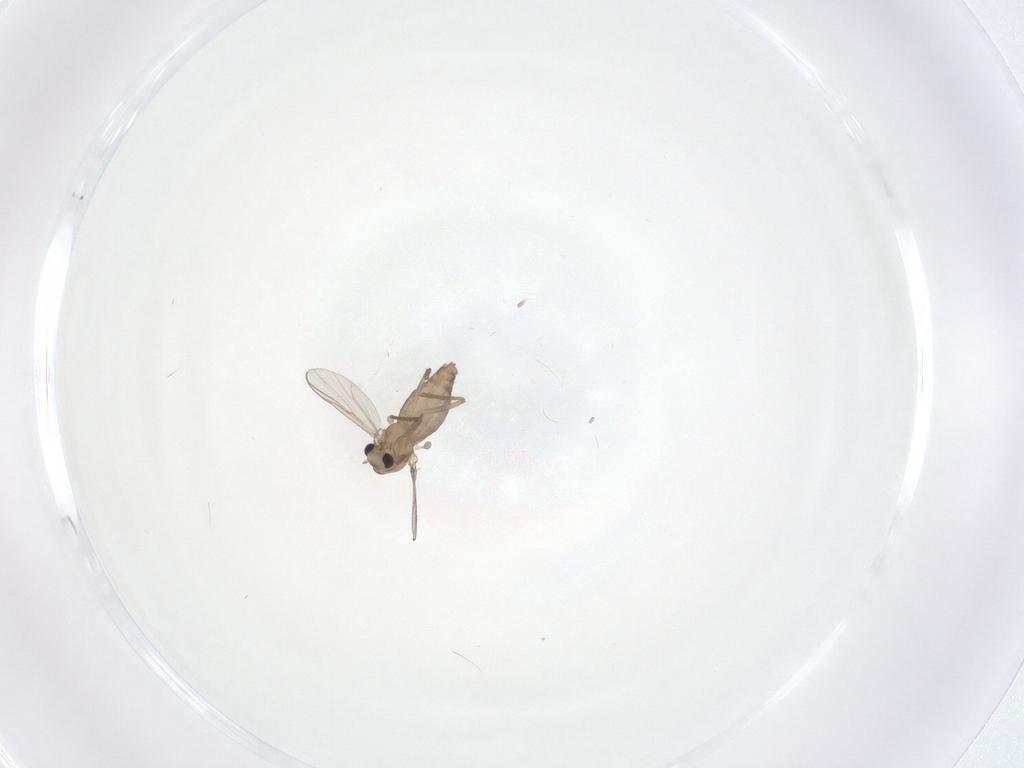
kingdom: Animalia
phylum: Arthropoda
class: Insecta
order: Diptera
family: Chironomidae
